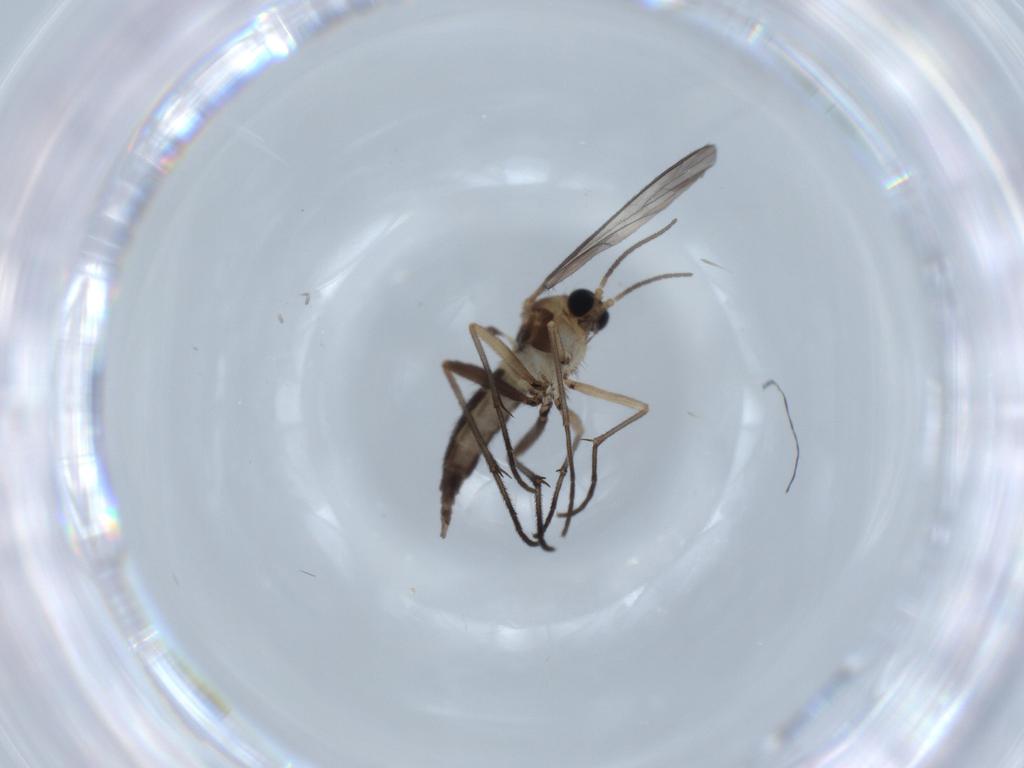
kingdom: Animalia
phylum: Arthropoda
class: Insecta
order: Diptera
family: Sciaridae
